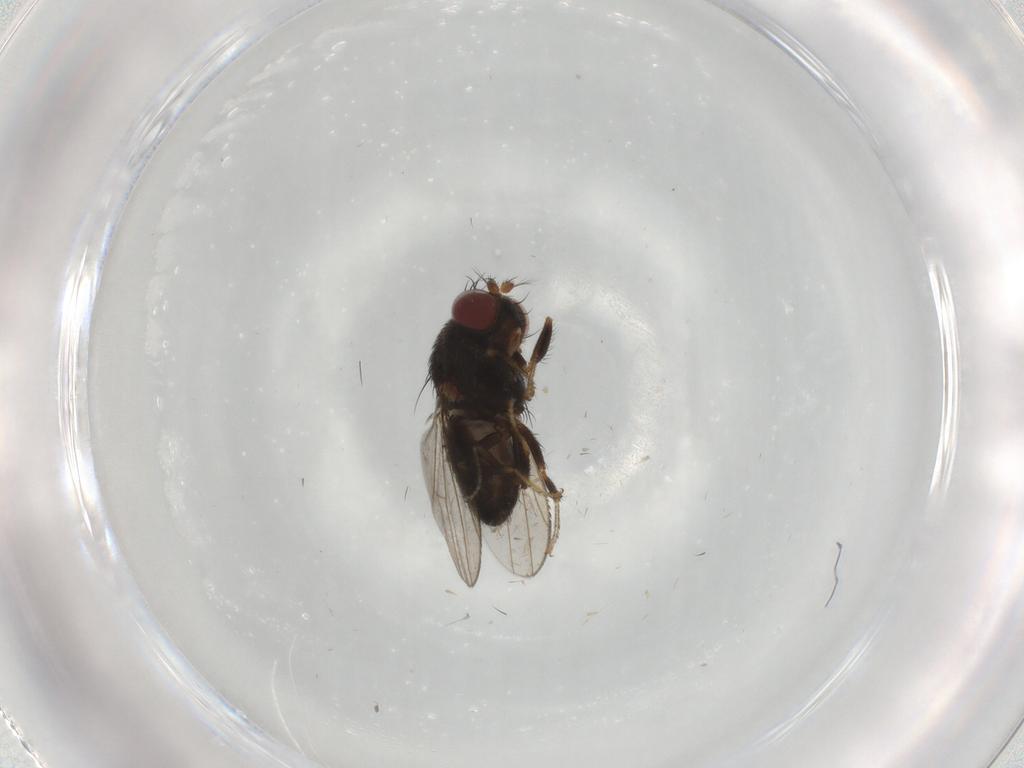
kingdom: Animalia
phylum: Arthropoda
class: Insecta
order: Diptera
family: Ephydridae
